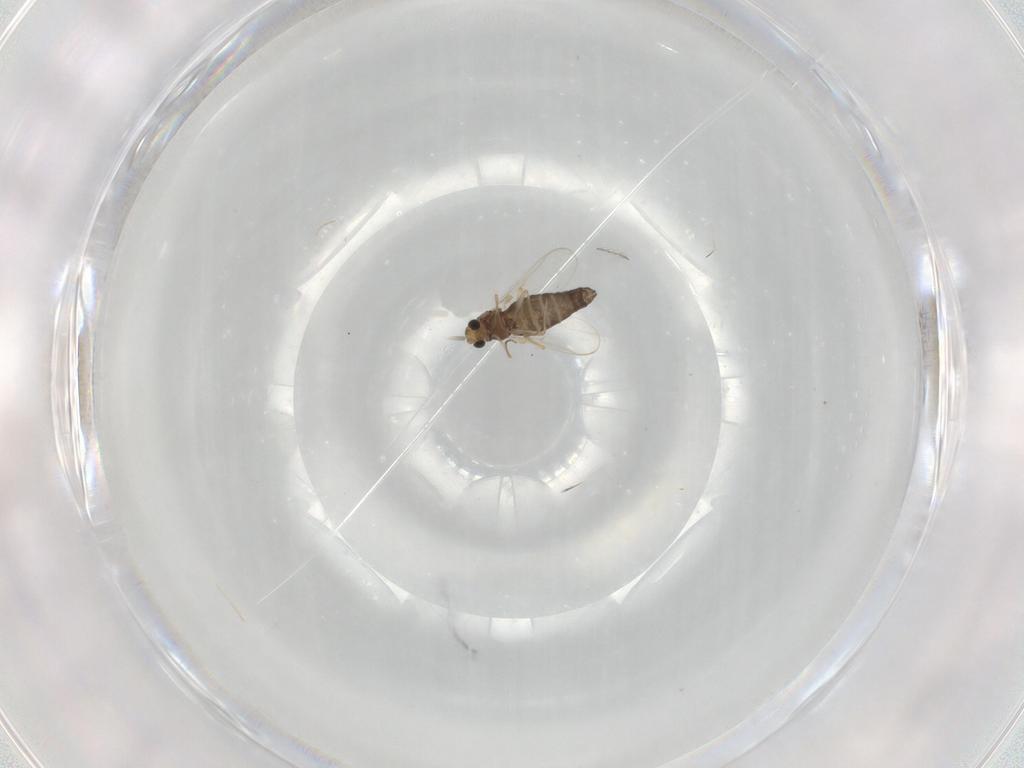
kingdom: Animalia
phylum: Arthropoda
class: Insecta
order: Diptera
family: Chironomidae
